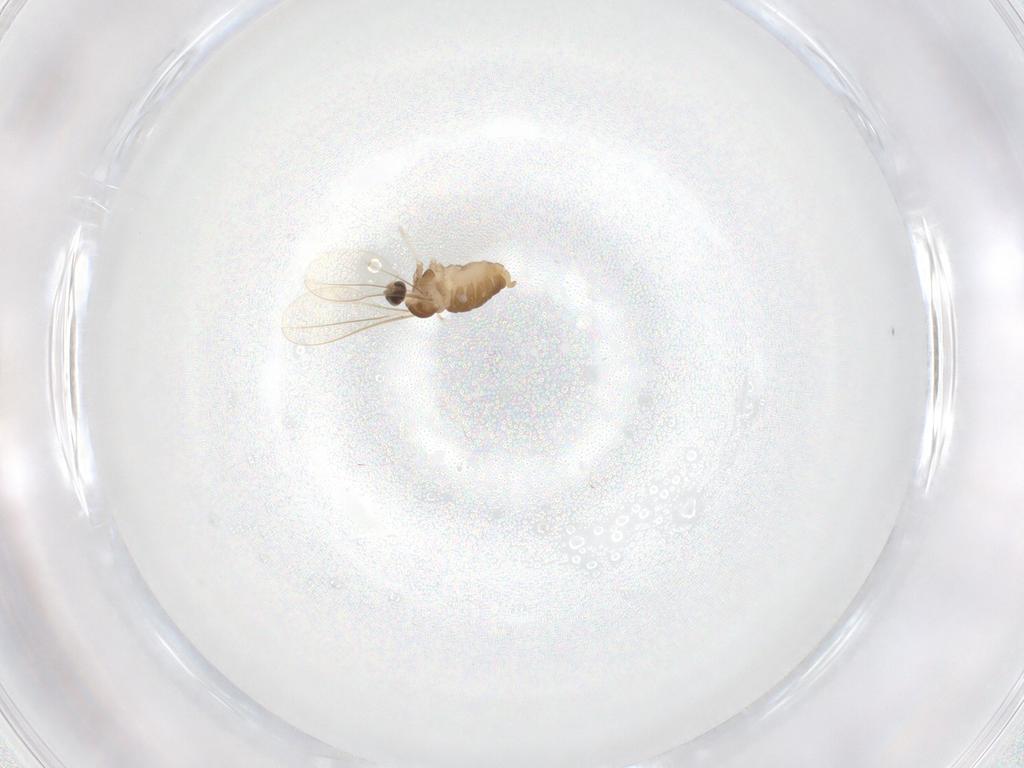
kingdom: Animalia
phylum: Arthropoda
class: Insecta
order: Diptera
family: Cecidomyiidae
